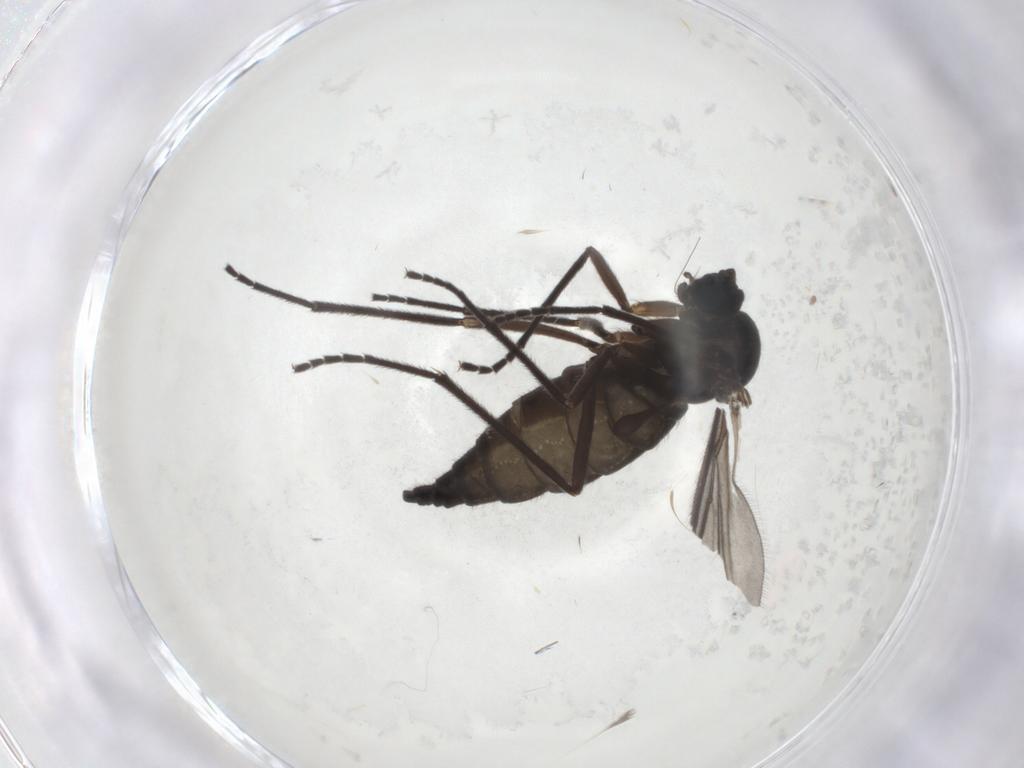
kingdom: Animalia
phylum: Arthropoda
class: Insecta
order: Diptera
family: Sciaridae
